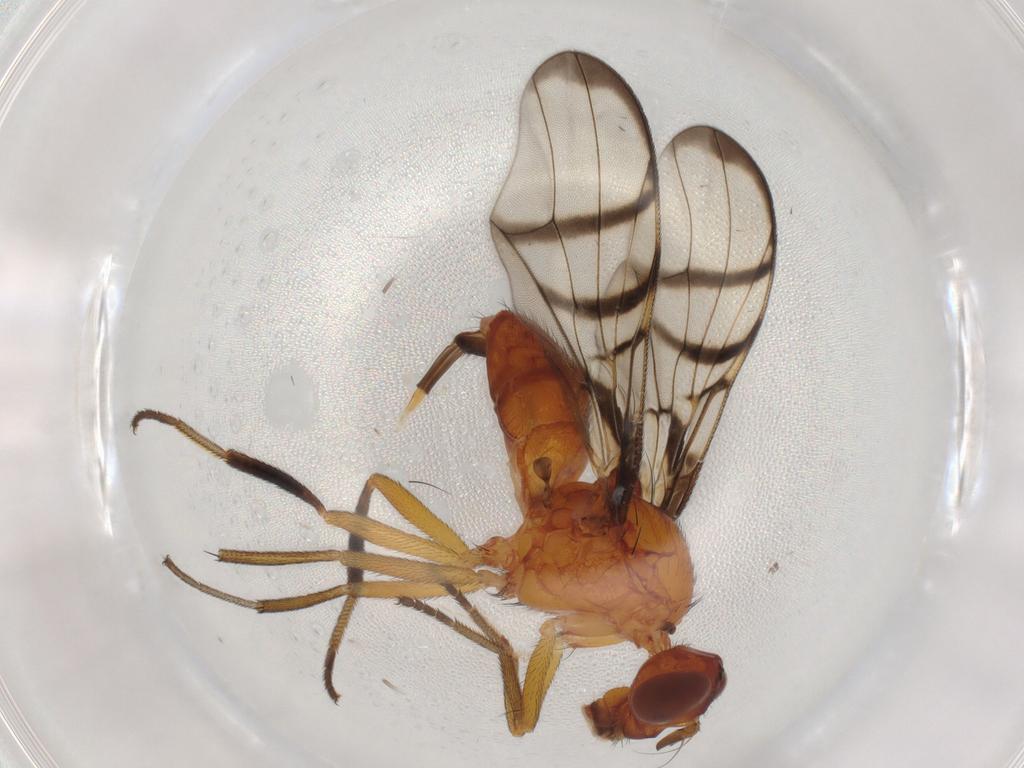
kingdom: Animalia
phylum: Arthropoda
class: Insecta
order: Diptera
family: Platystomatidae
